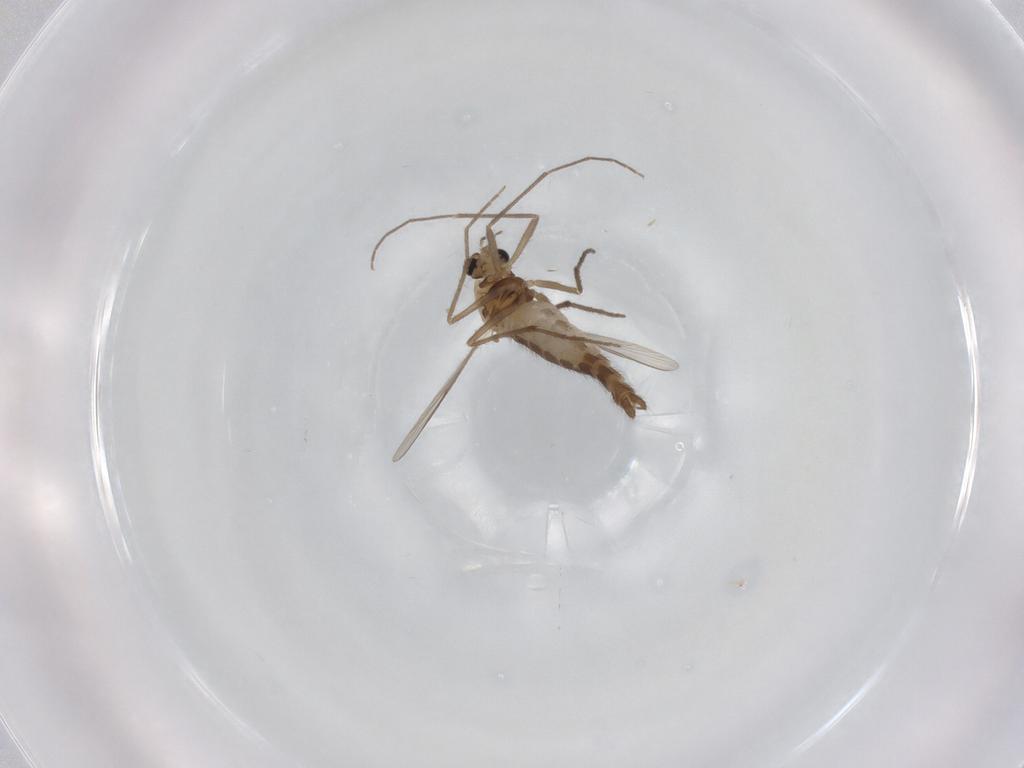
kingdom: Animalia
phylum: Arthropoda
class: Insecta
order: Diptera
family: Chironomidae
